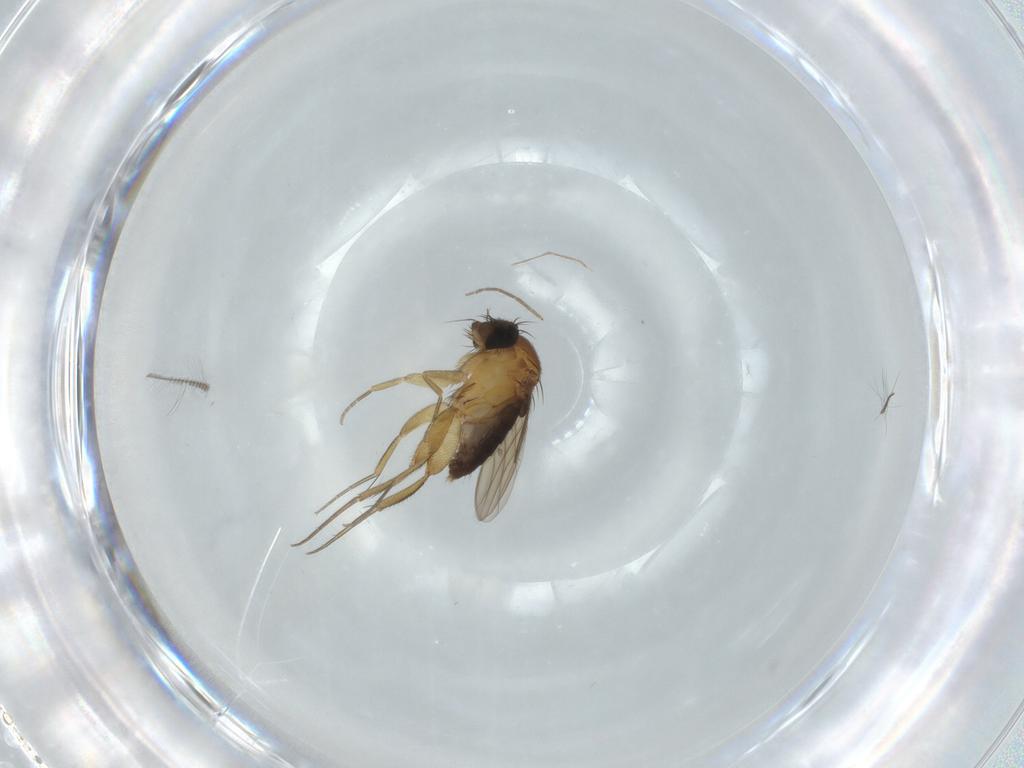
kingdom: Animalia
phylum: Arthropoda
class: Insecta
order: Diptera
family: Phoridae
